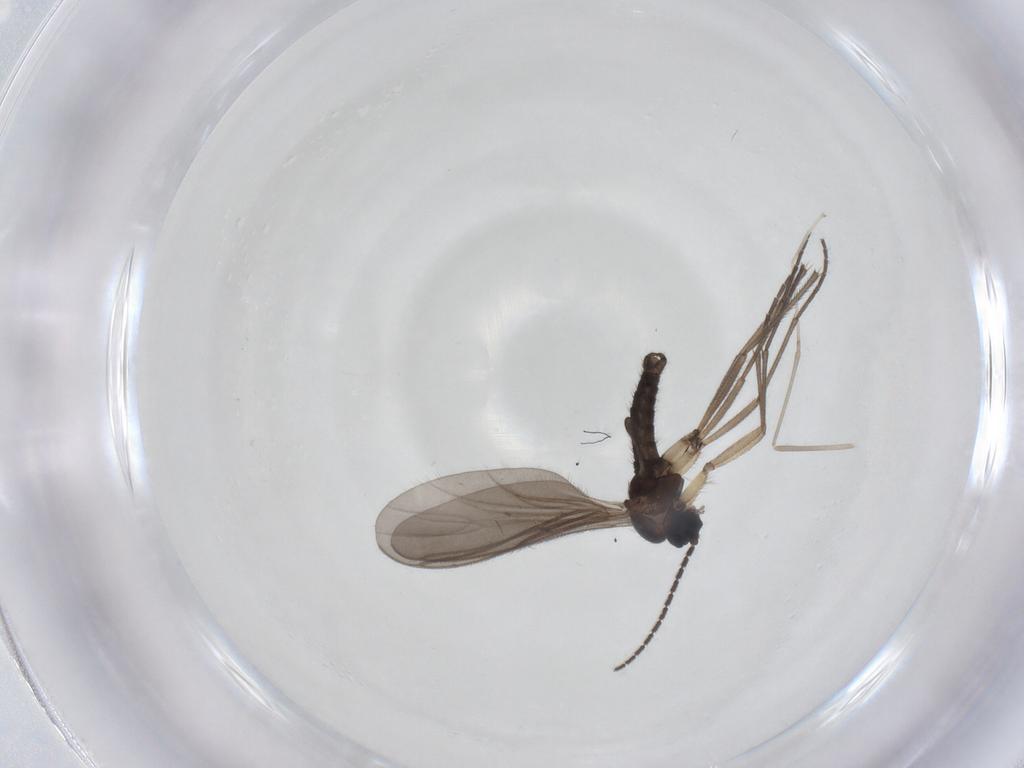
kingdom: Animalia
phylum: Arthropoda
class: Insecta
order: Diptera
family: Sciaridae
